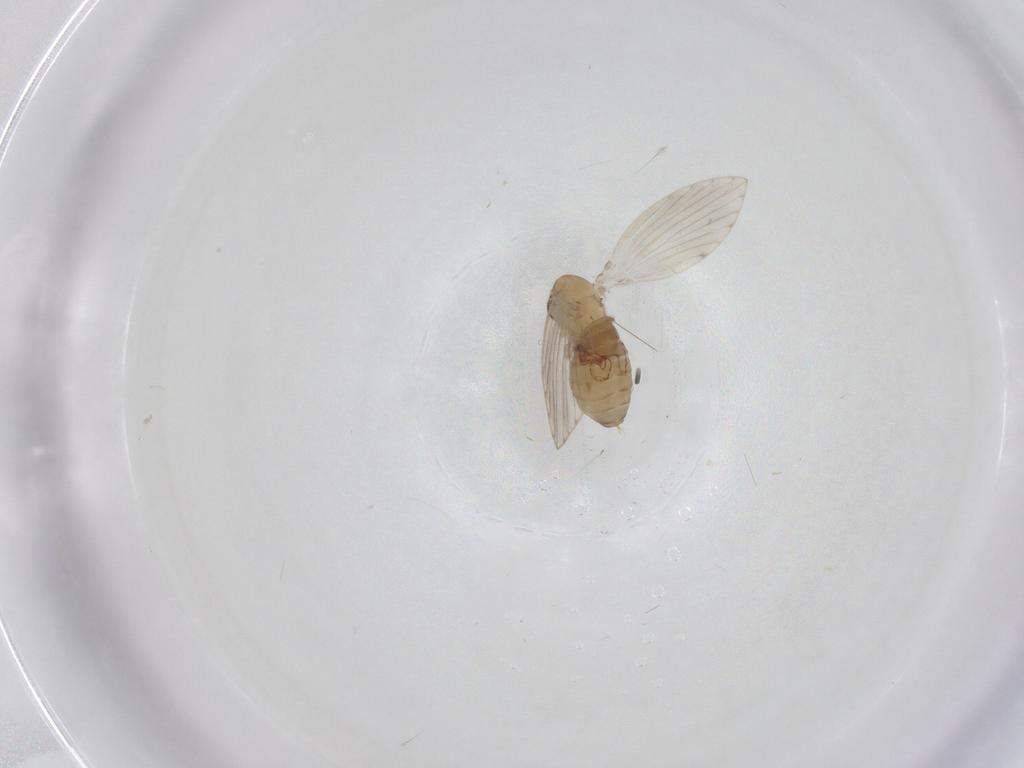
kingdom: Animalia
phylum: Arthropoda
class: Insecta
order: Diptera
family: Psychodidae
